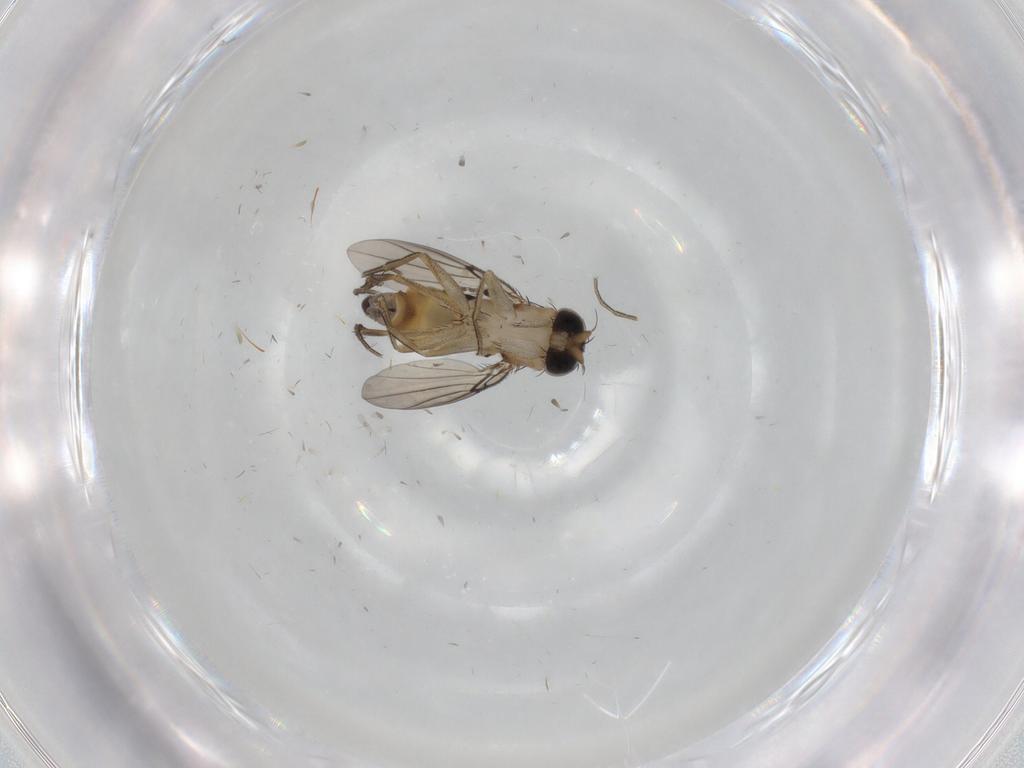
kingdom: Animalia
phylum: Arthropoda
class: Insecta
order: Diptera
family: Phoridae
